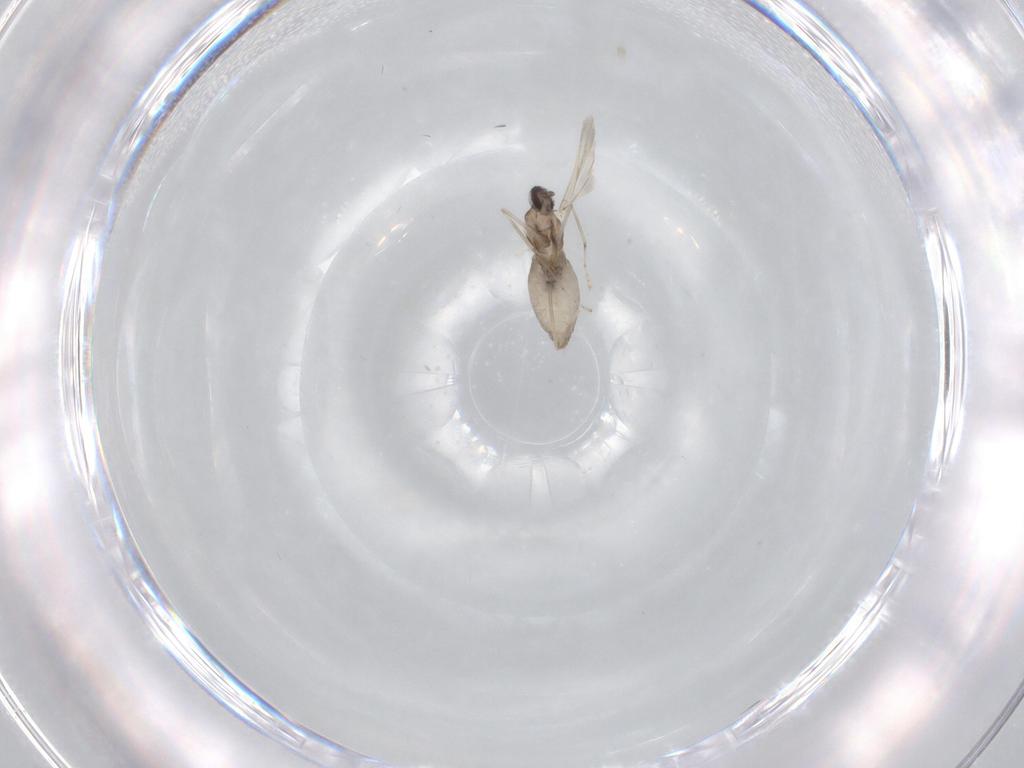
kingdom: Animalia
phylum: Arthropoda
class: Insecta
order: Diptera
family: Cecidomyiidae
